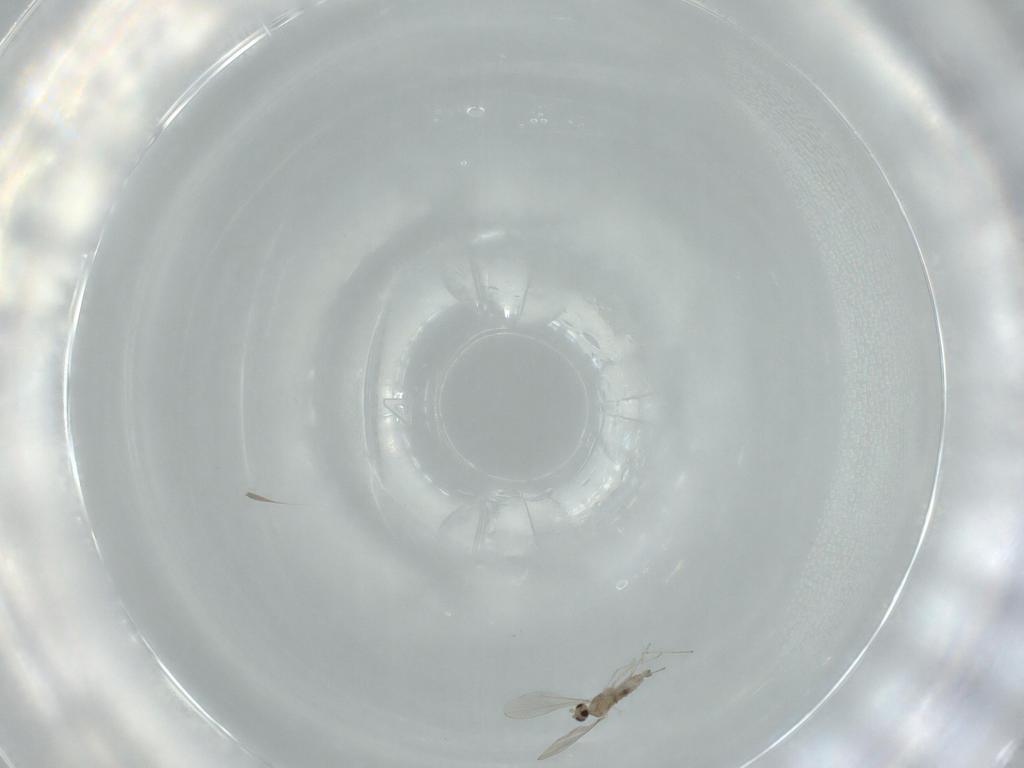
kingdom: Animalia
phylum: Arthropoda
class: Insecta
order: Diptera
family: Cecidomyiidae
